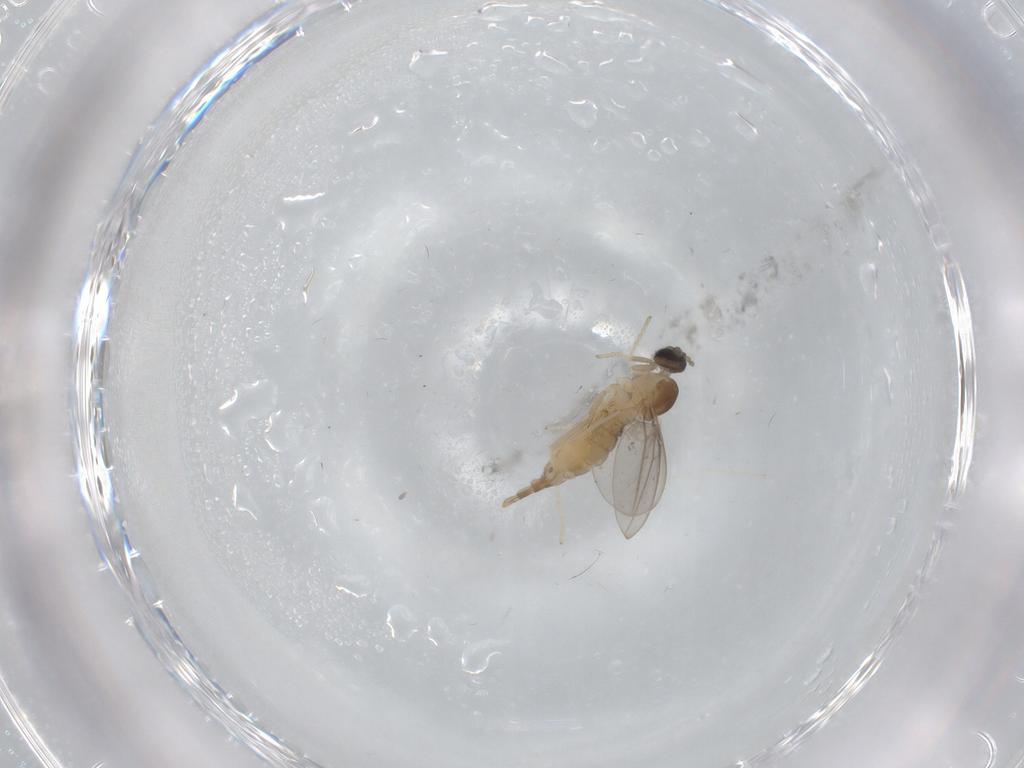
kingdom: Animalia
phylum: Arthropoda
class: Insecta
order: Diptera
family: Cecidomyiidae
